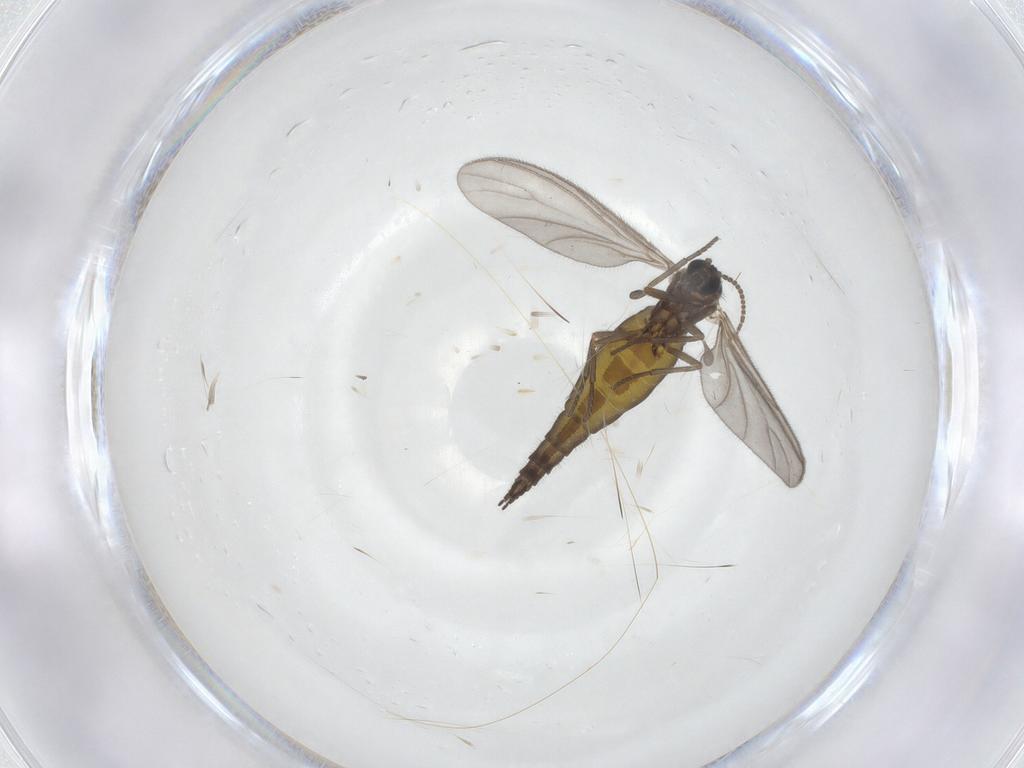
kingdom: Animalia
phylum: Arthropoda
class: Insecta
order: Diptera
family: Sciaridae
